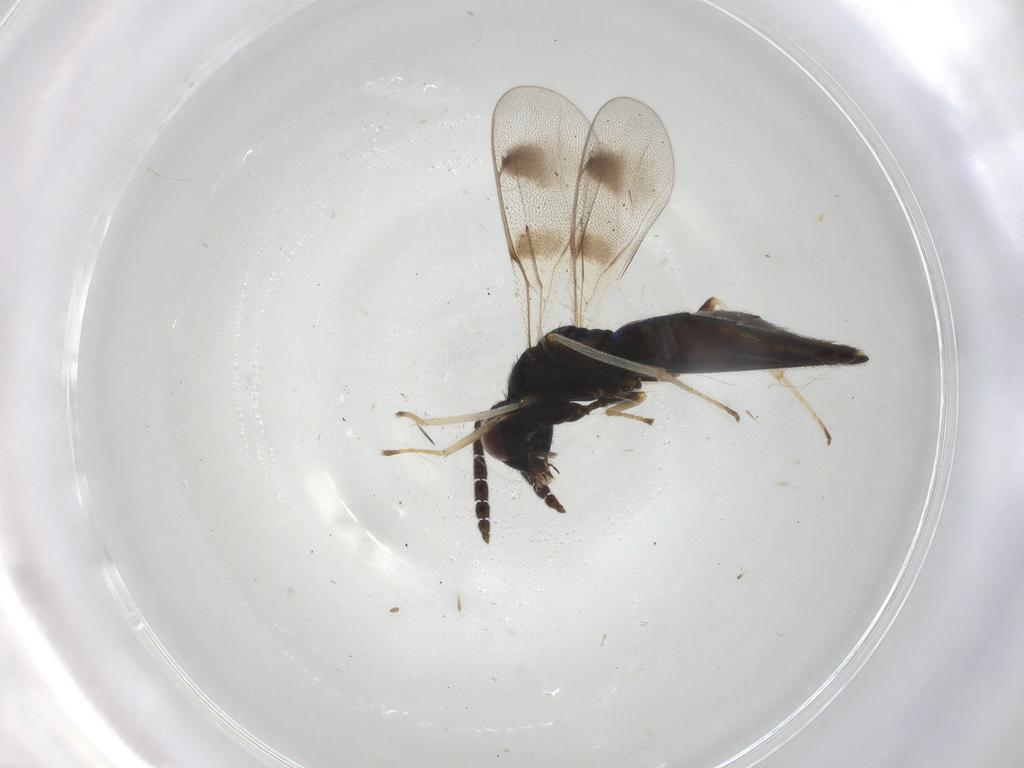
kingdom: Animalia
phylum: Arthropoda
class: Insecta
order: Hymenoptera
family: Eulophidae
